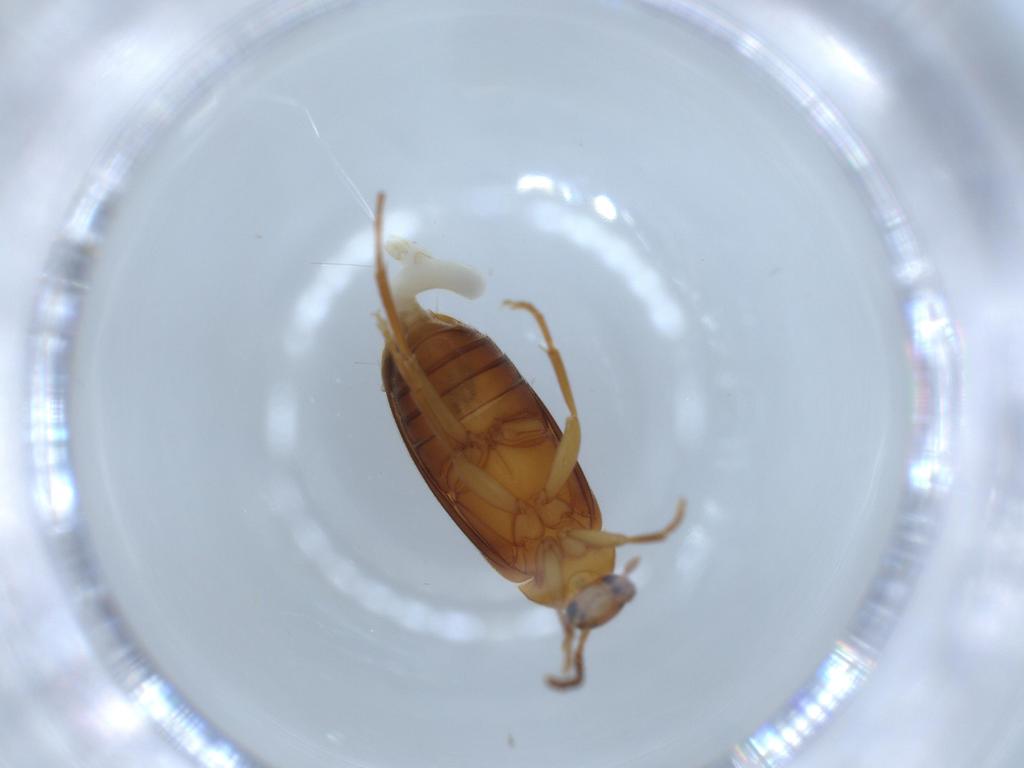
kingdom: Animalia
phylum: Arthropoda
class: Insecta
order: Coleoptera
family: Scraptiidae
